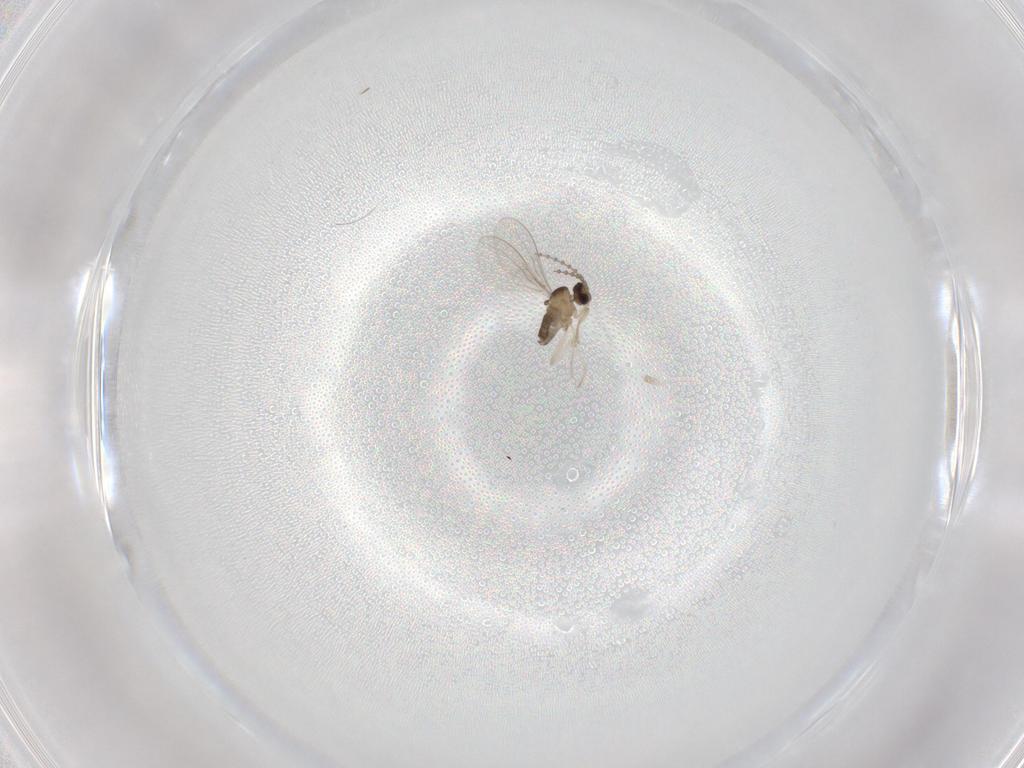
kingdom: Animalia
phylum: Arthropoda
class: Insecta
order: Diptera
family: Cecidomyiidae
